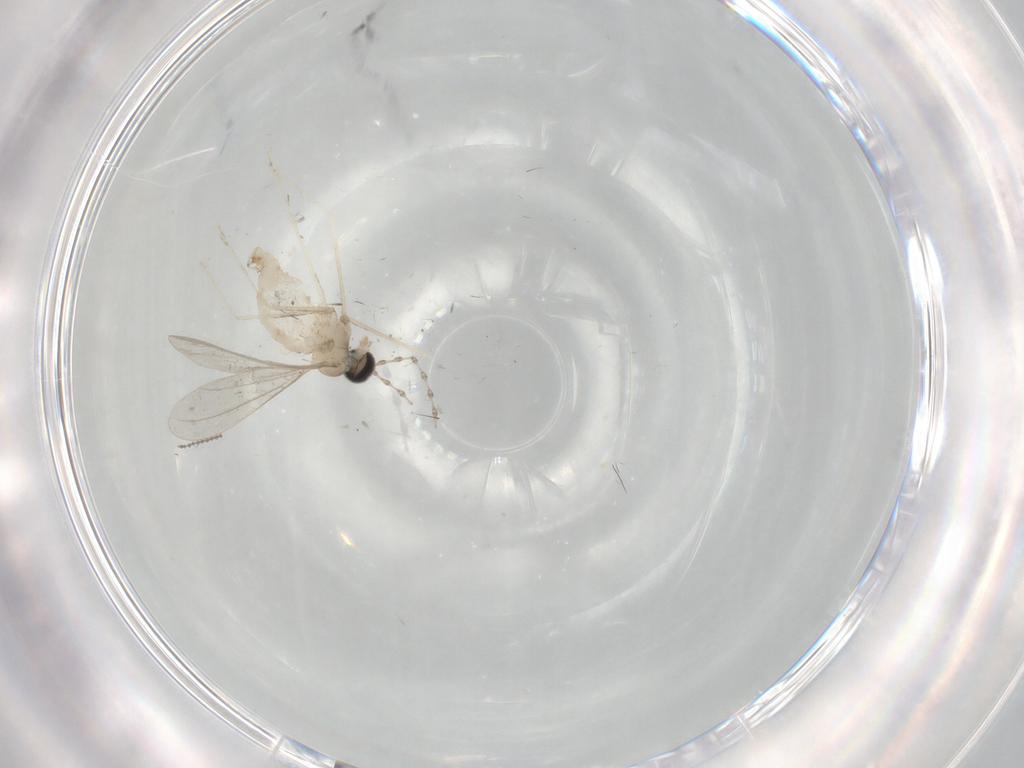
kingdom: Animalia
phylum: Arthropoda
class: Insecta
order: Diptera
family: Cecidomyiidae
